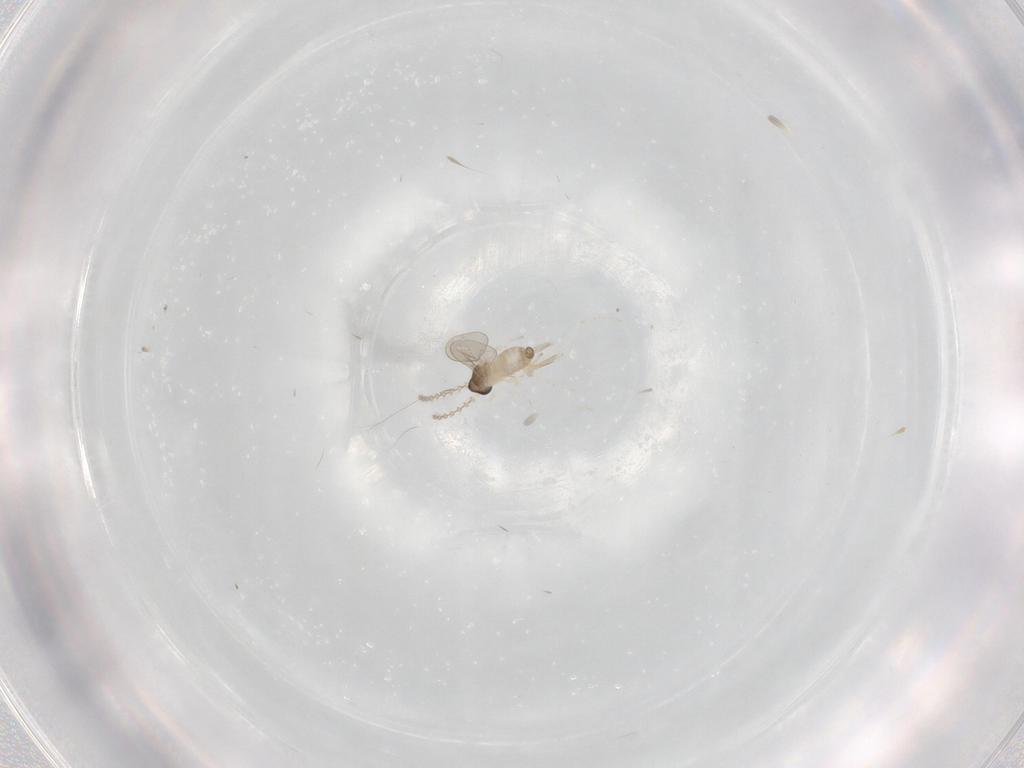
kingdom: Animalia
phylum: Arthropoda
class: Insecta
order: Diptera
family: Cecidomyiidae
